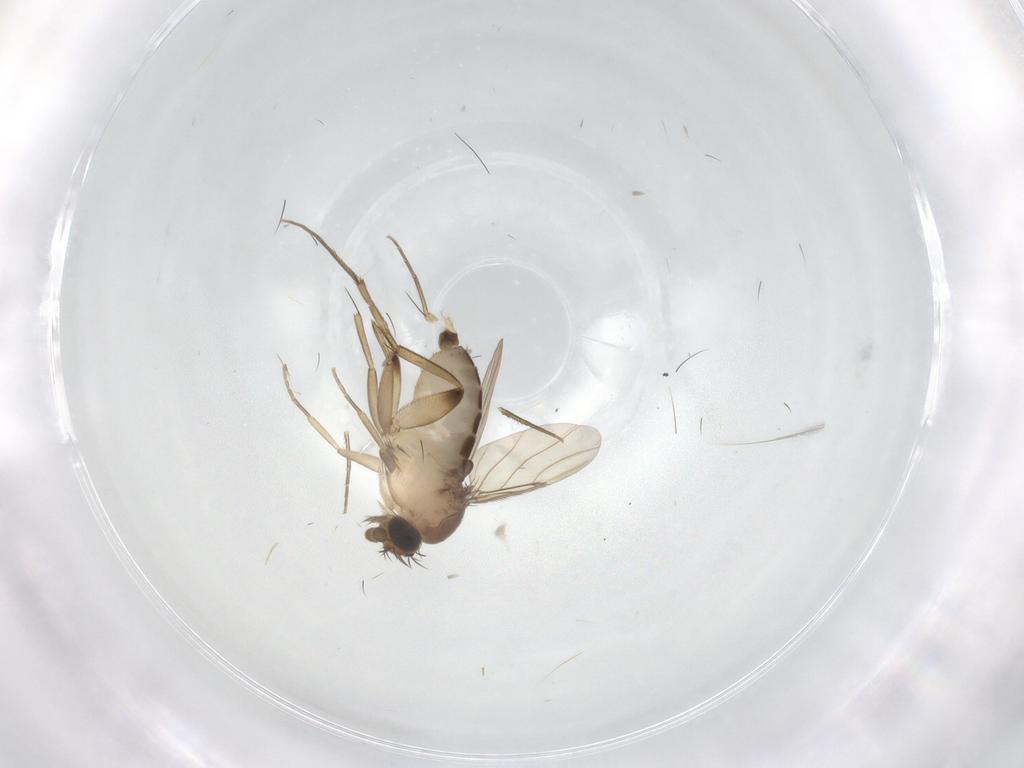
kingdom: Animalia
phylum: Arthropoda
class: Insecta
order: Diptera
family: Phoridae
